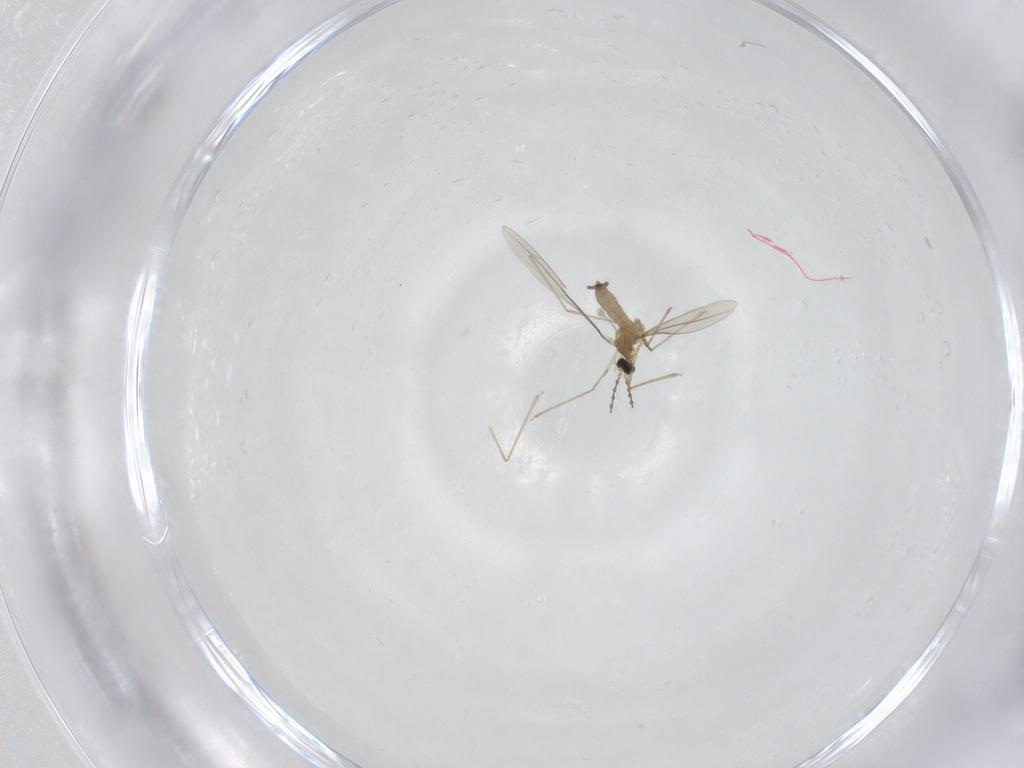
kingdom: Animalia
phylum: Arthropoda
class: Insecta
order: Diptera
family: Cecidomyiidae
